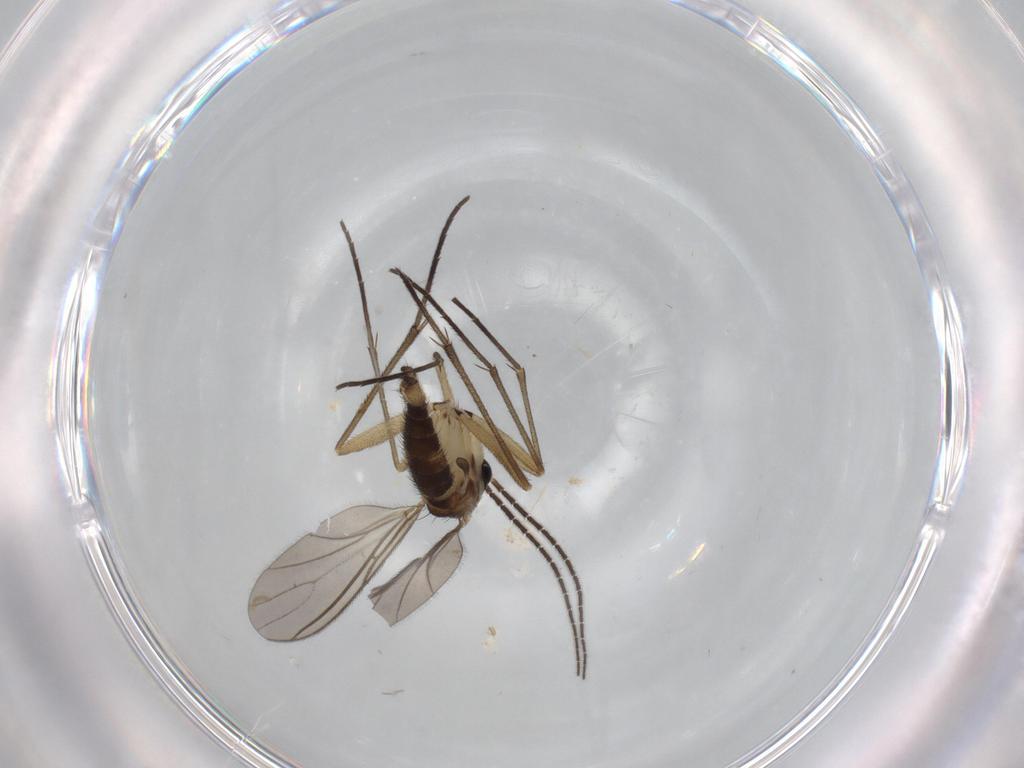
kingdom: Animalia
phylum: Arthropoda
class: Insecta
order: Diptera
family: Sciaridae
